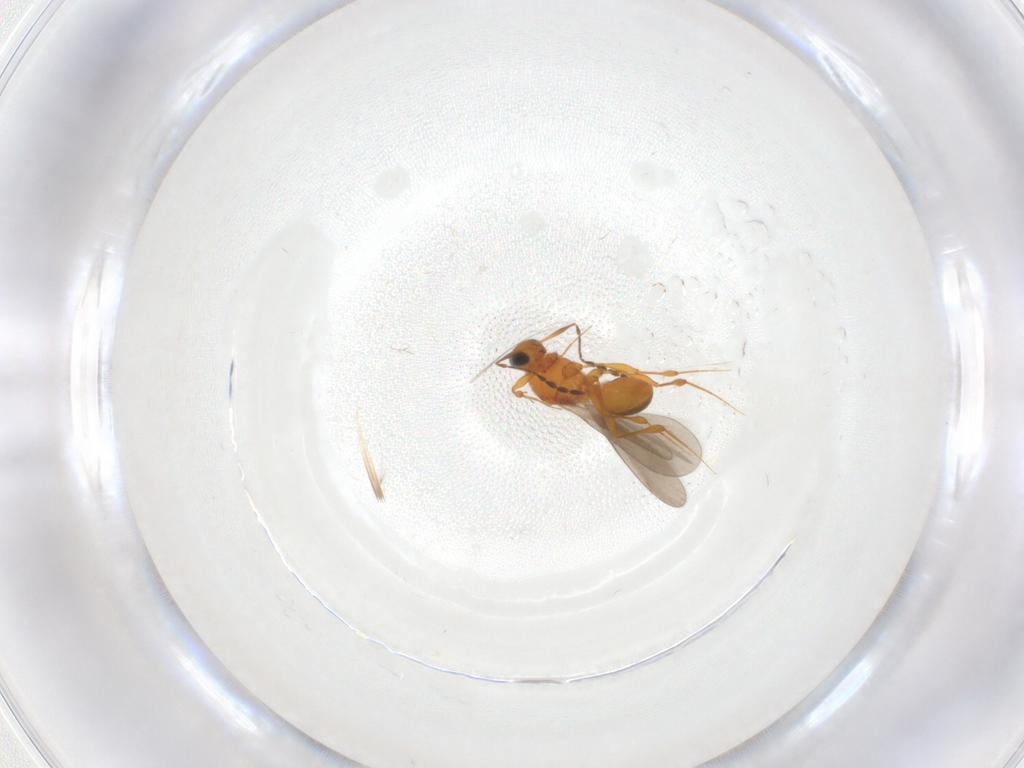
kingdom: Animalia
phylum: Arthropoda
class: Insecta
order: Hymenoptera
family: Platygastridae
